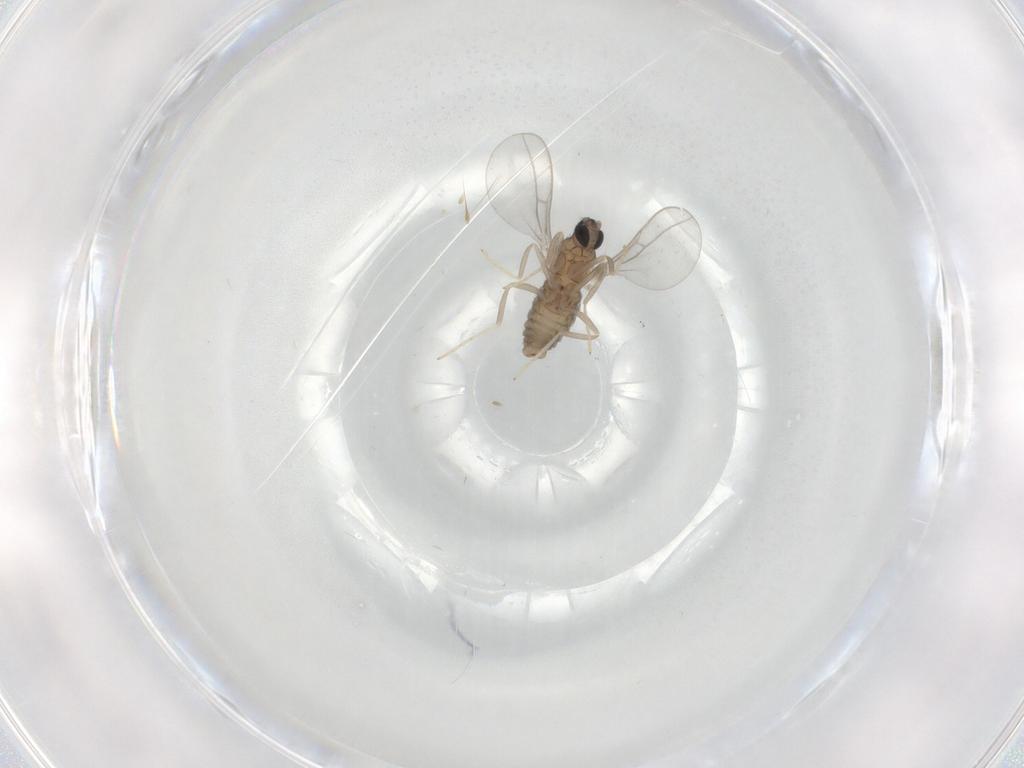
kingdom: Animalia
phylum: Arthropoda
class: Insecta
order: Diptera
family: Cecidomyiidae
